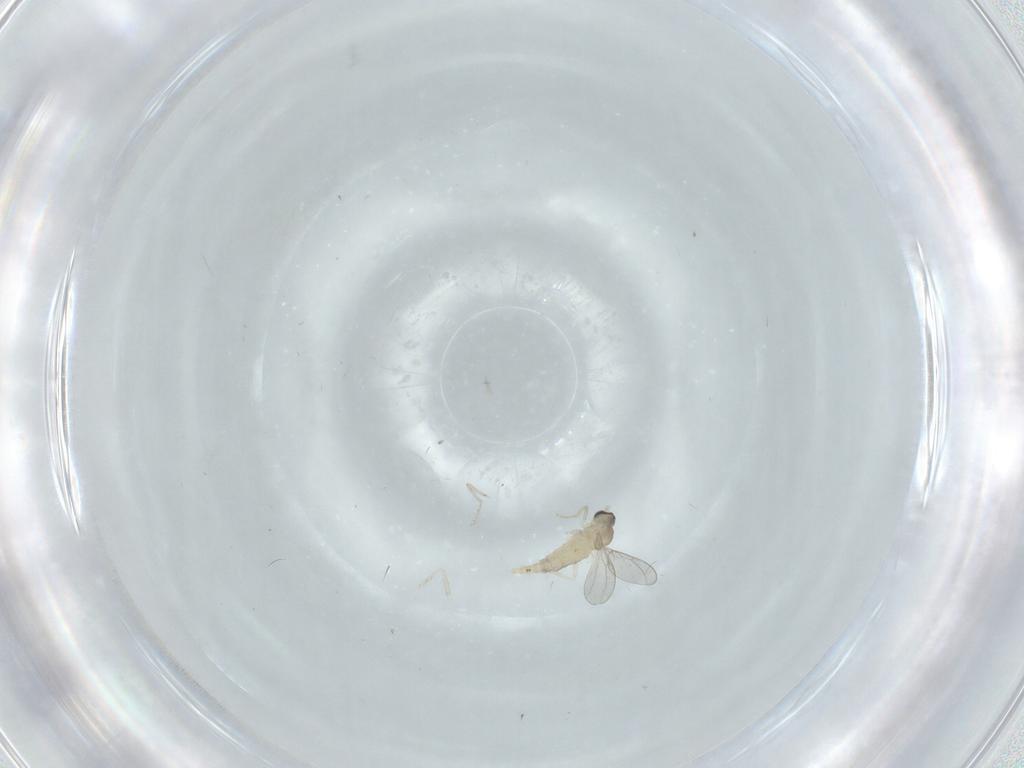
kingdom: Animalia
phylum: Arthropoda
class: Insecta
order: Diptera
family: Cecidomyiidae
